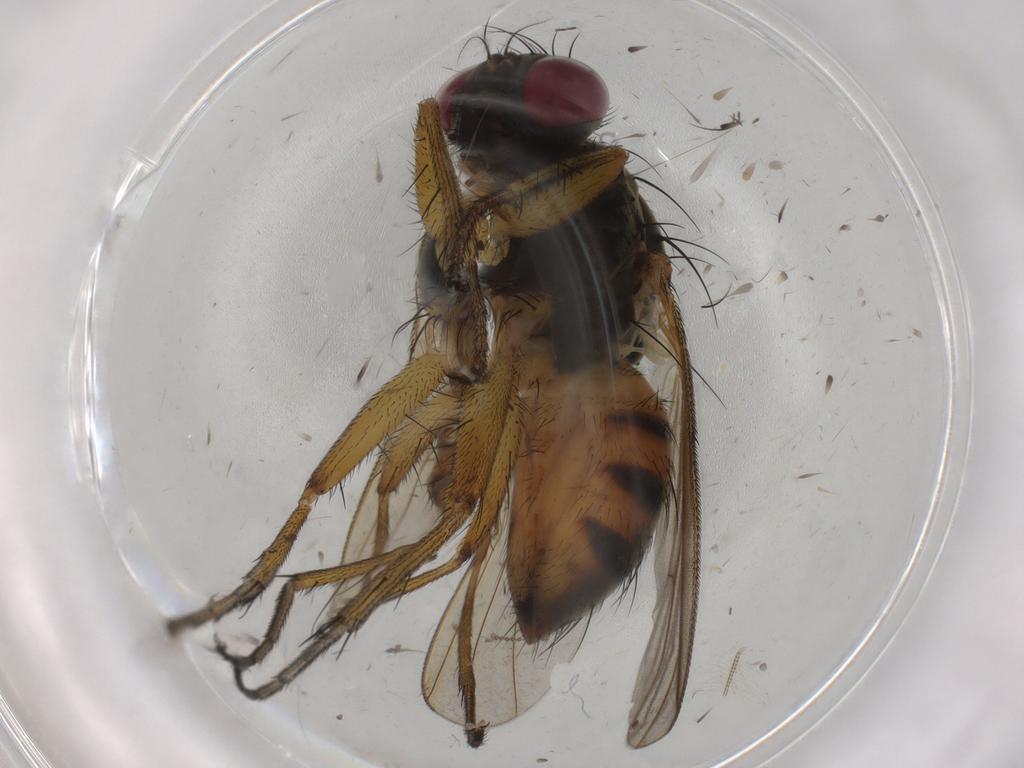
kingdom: Animalia
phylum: Arthropoda
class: Insecta
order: Diptera
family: Muscidae
